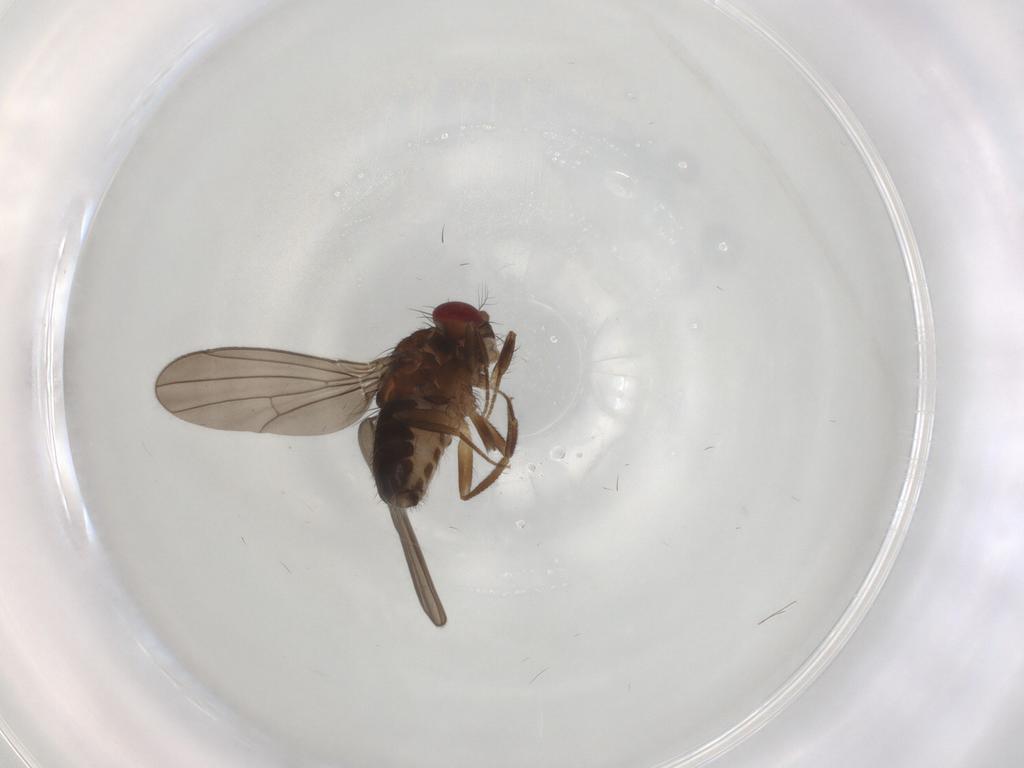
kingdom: Animalia
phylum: Arthropoda
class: Insecta
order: Diptera
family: Drosophilidae
